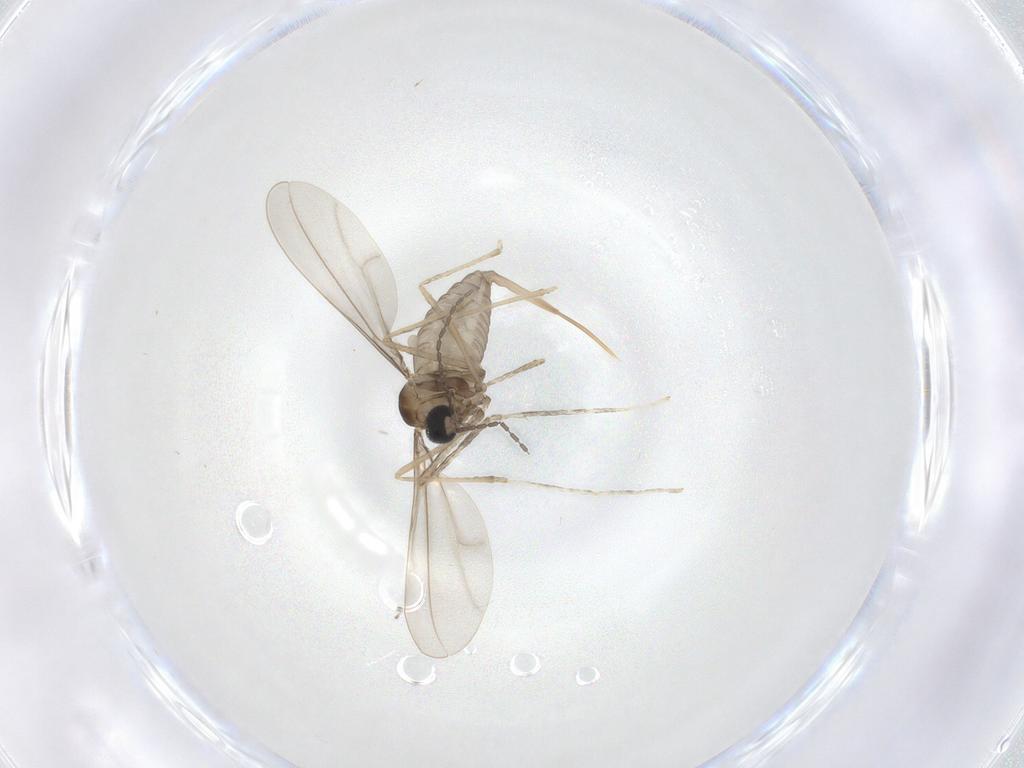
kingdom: Animalia
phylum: Arthropoda
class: Insecta
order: Diptera
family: Cecidomyiidae
